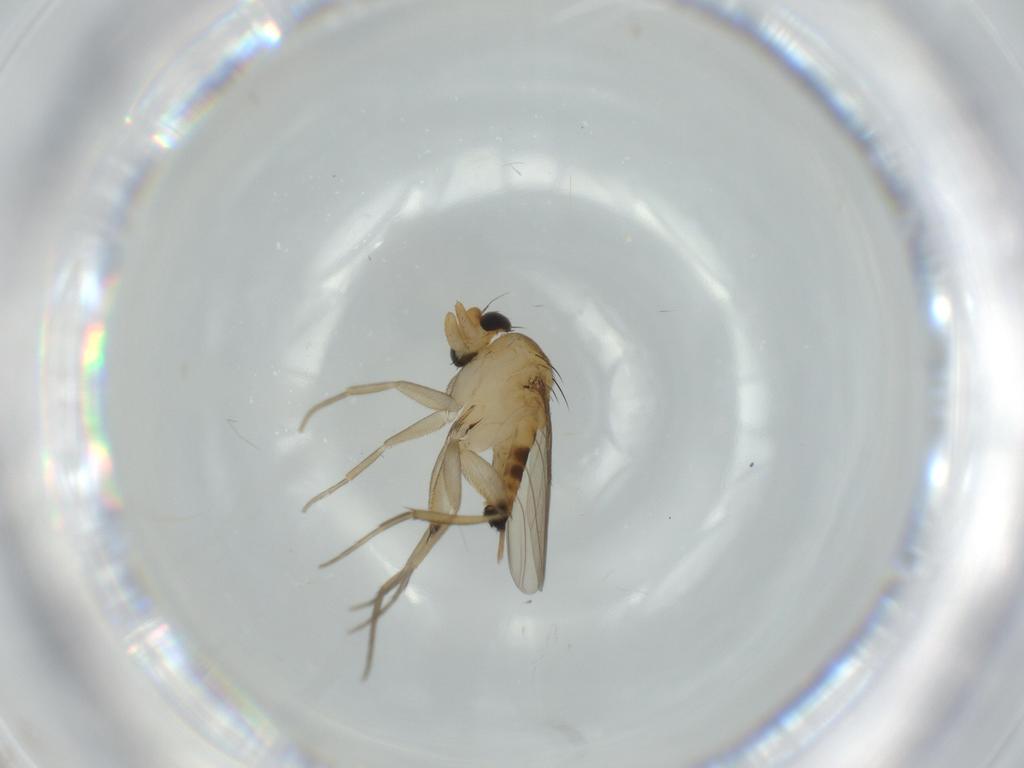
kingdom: Animalia
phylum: Arthropoda
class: Insecta
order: Diptera
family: Phoridae
